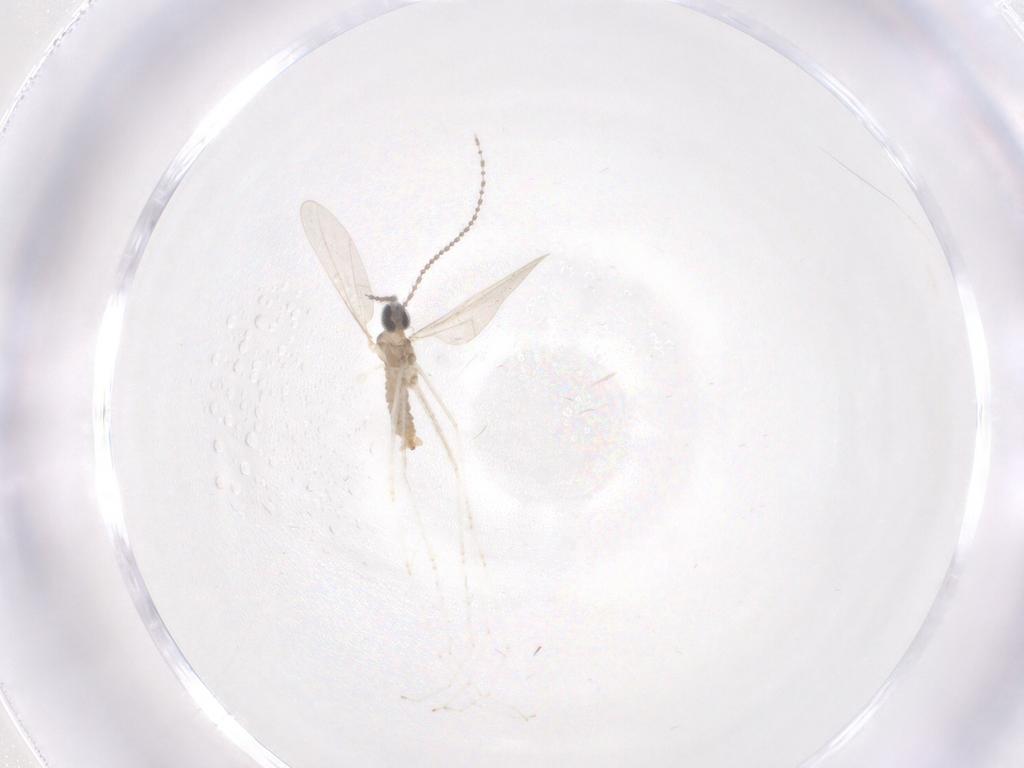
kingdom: Animalia
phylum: Arthropoda
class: Insecta
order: Diptera
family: Cecidomyiidae
